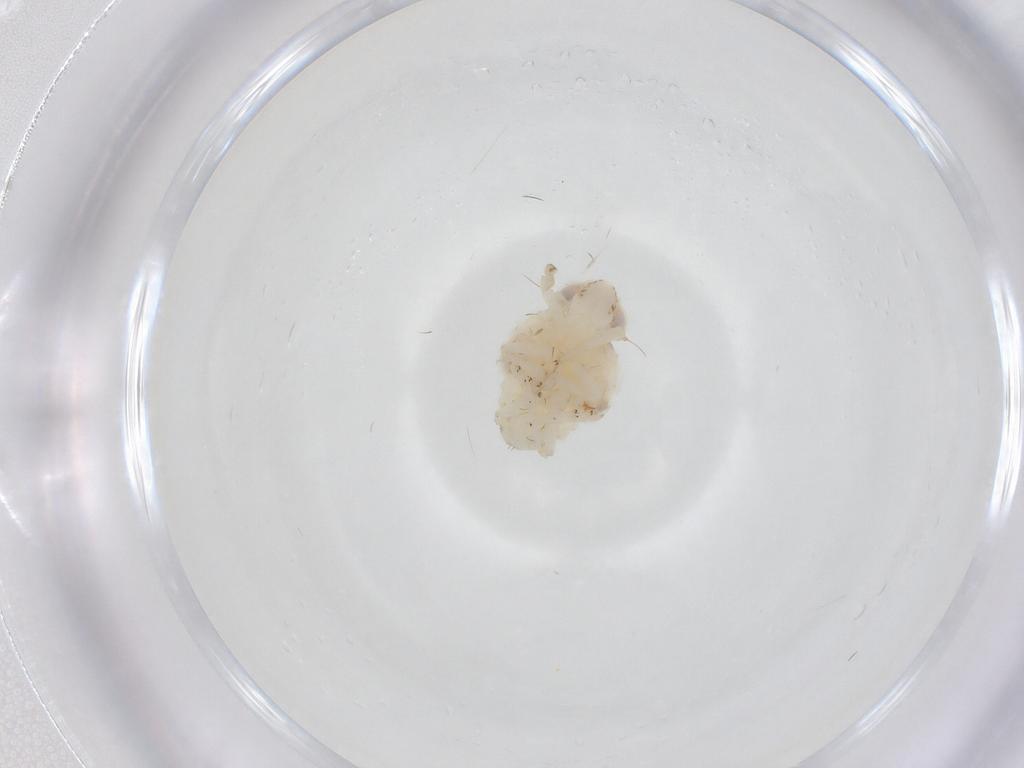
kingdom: Animalia
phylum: Arthropoda
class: Insecta
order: Hemiptera
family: Nogodinidae
